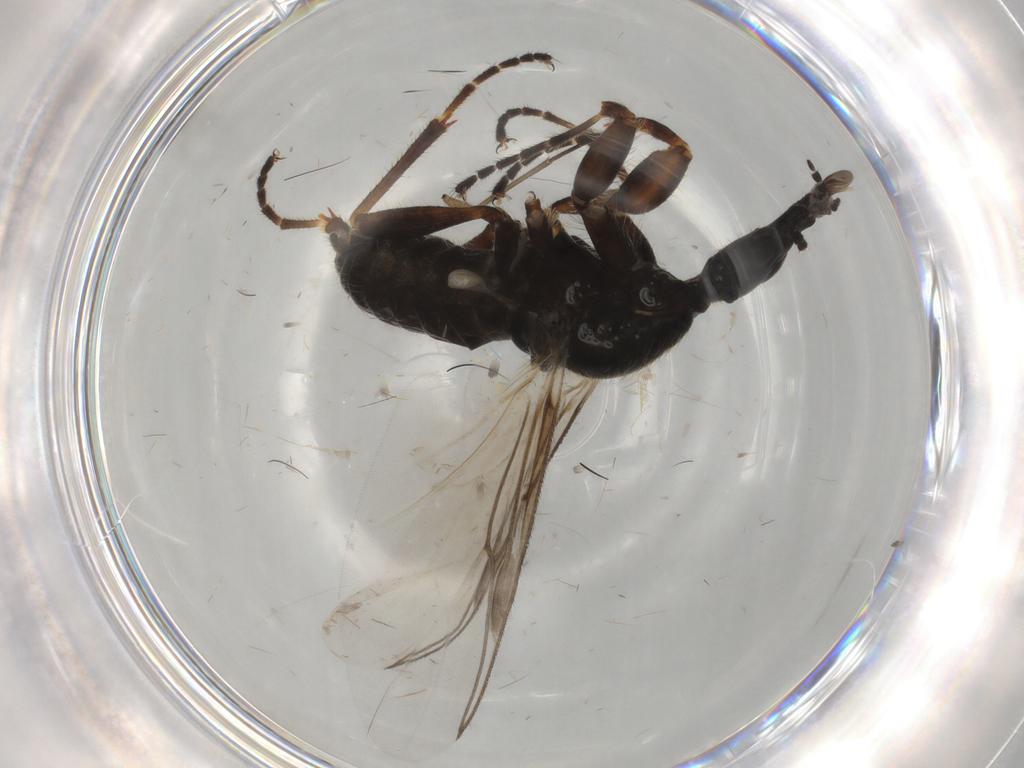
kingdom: Animalia
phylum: Arthropoda
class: Insecta
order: Diptera
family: Bibionidae
